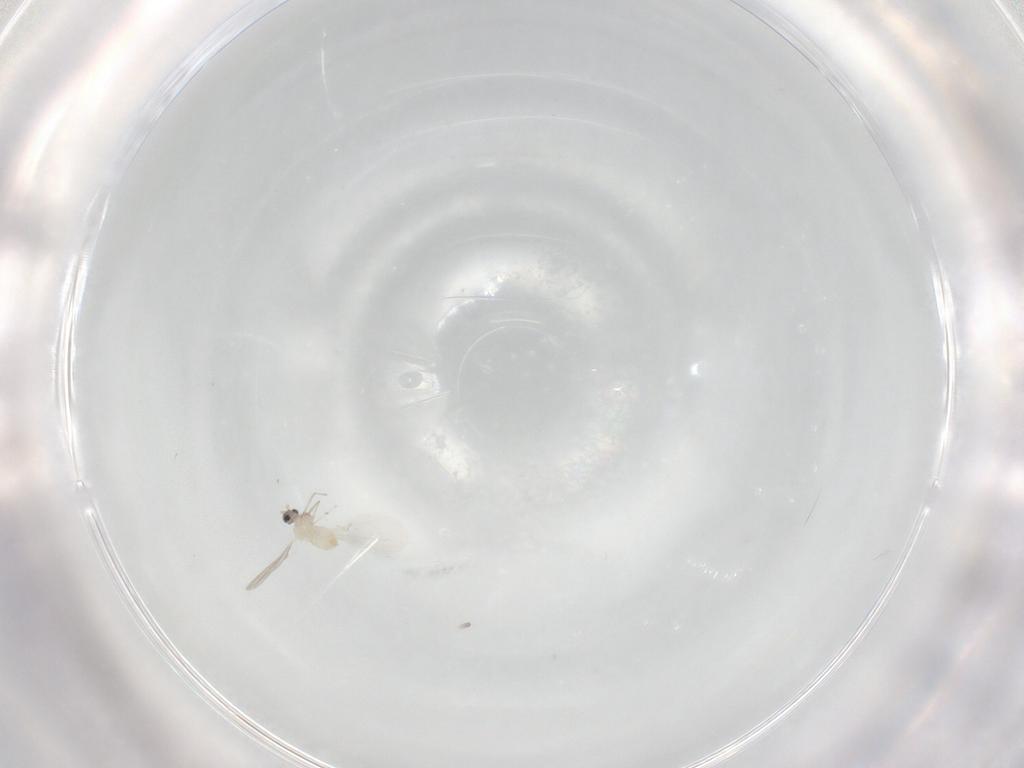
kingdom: Animalia
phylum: Arthropoda
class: Insecta
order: Diptera
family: Cecidomyiidae
